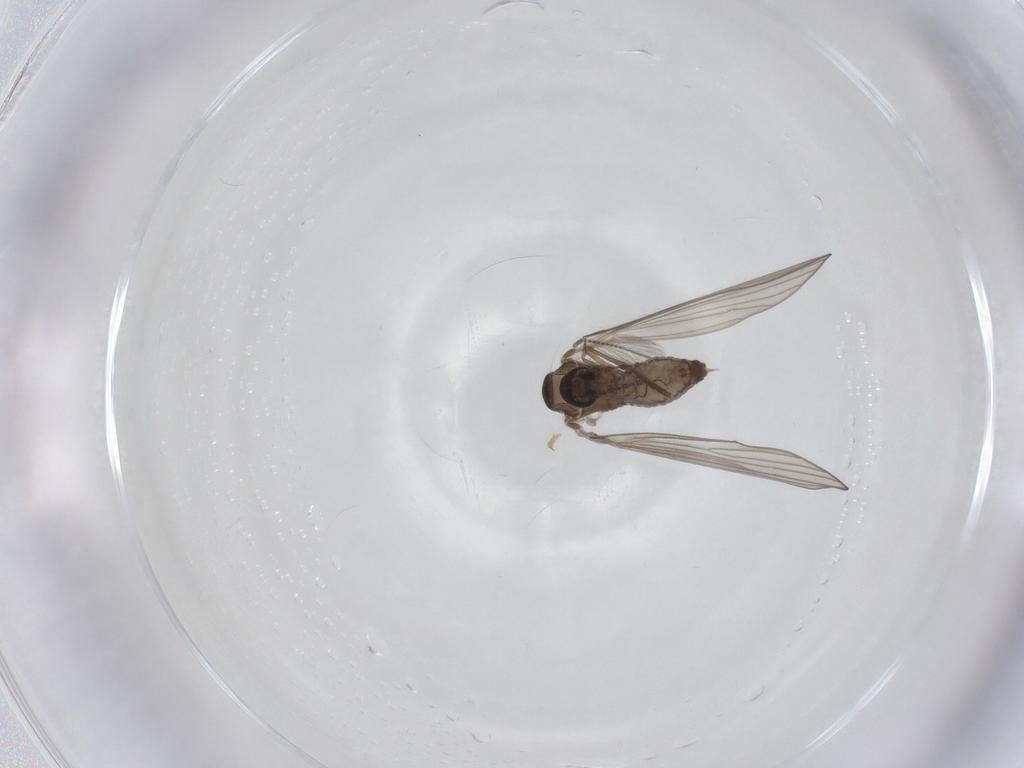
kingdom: Animalia
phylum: Arthropoda
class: Insecta
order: Diptera
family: Psychodidae
